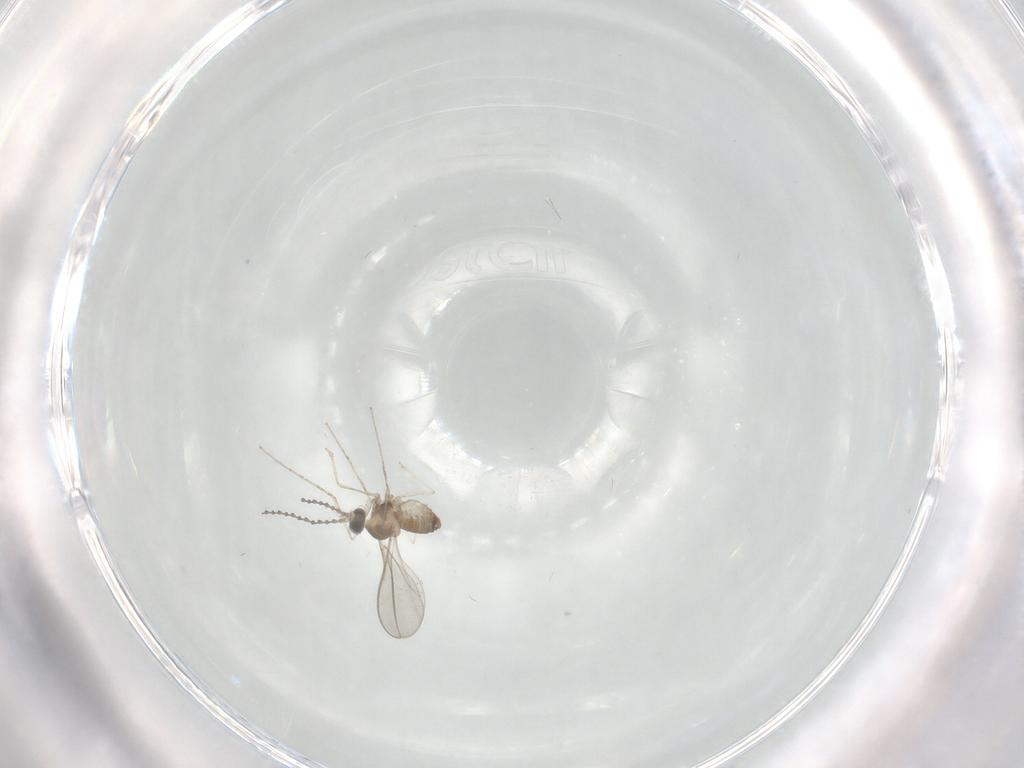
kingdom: Animalia
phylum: Arthropoda
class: Insecta
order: Diptera
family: Cecidomyiidae
